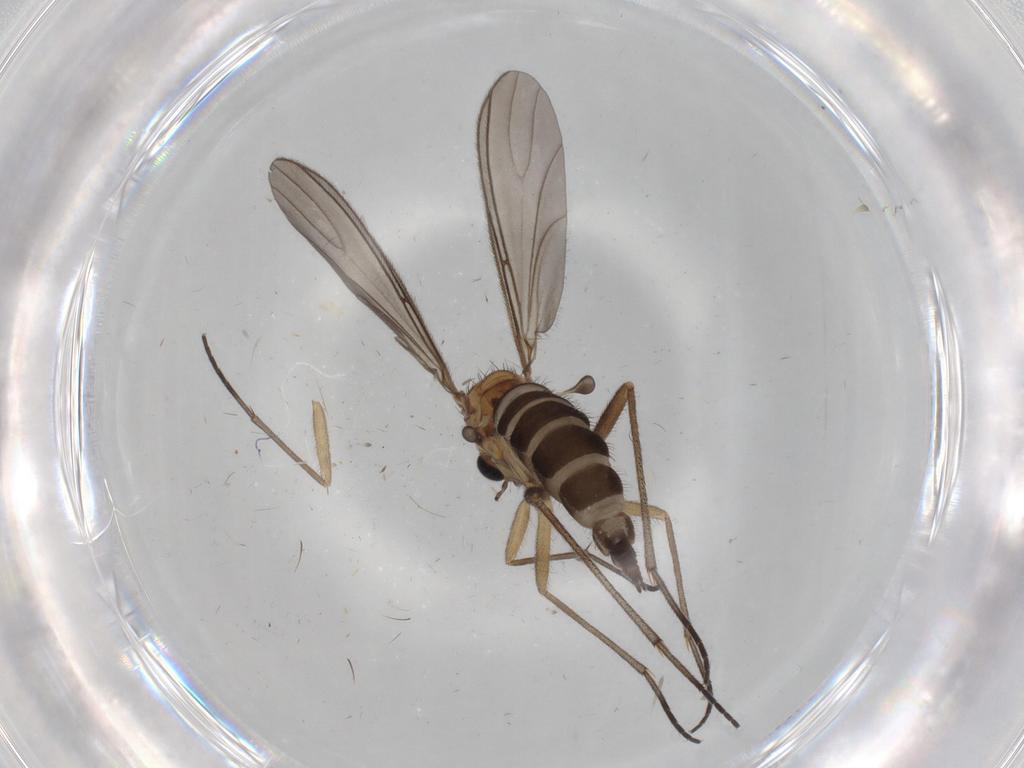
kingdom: Animalia
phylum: Arthropoda
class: Insecta
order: Diptera
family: Sciaridae
